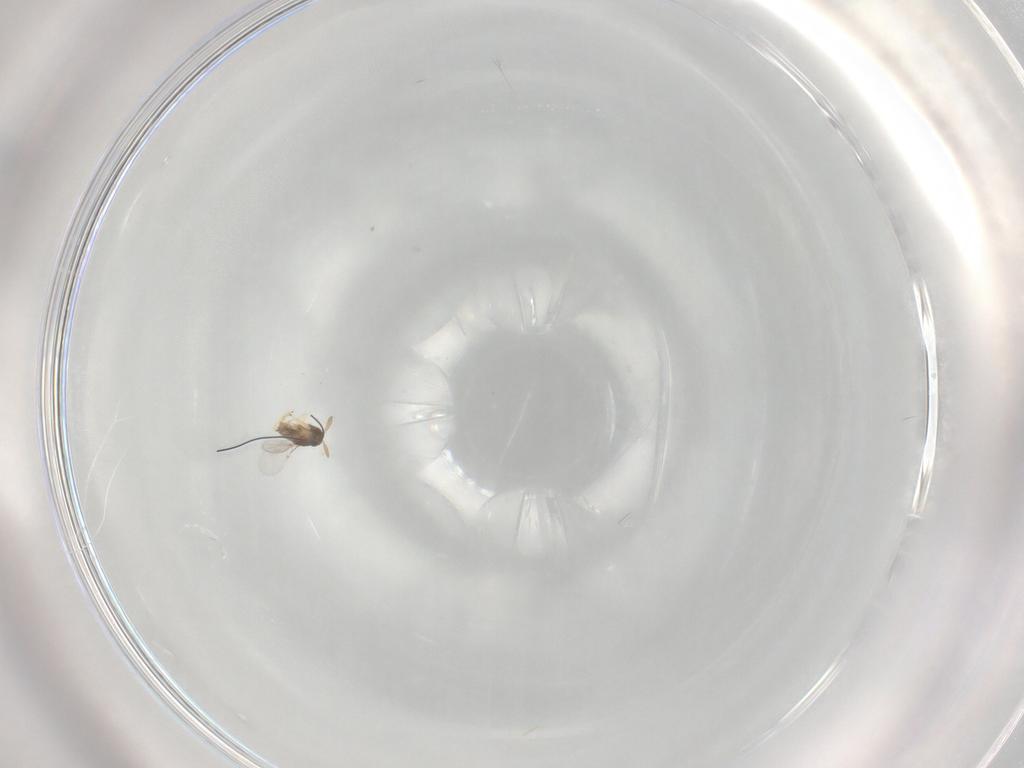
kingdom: Animalia
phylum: Arthropoda
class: Insecta
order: Hymenoptera
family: Encyrtidae
